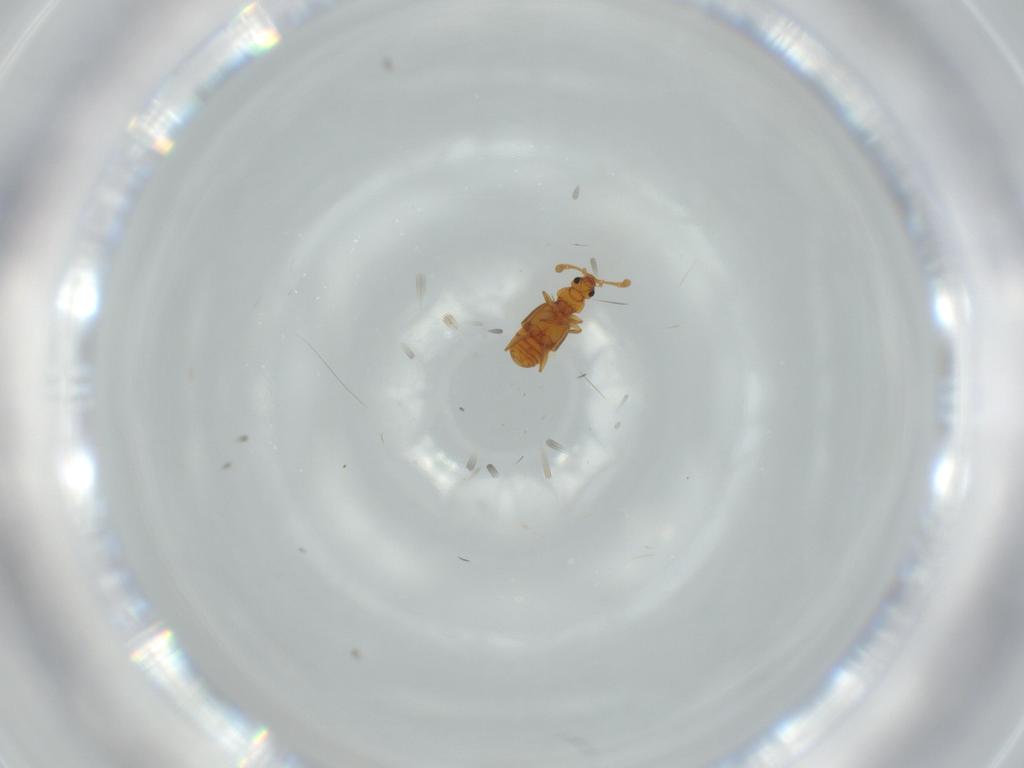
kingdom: Animalia
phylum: Arthropoda
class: Insecta
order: Coleoptera
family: Staphylinidae
